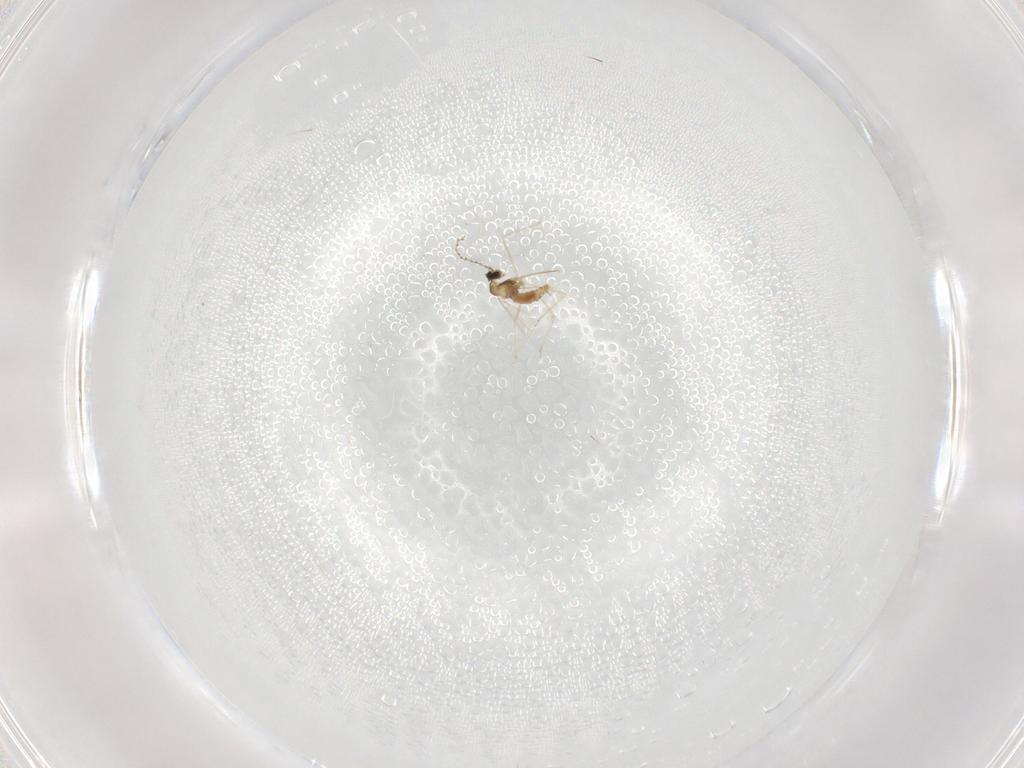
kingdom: Animalia
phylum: Arthropoda
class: Insecta
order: Diptera
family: Cecidomyiidae
